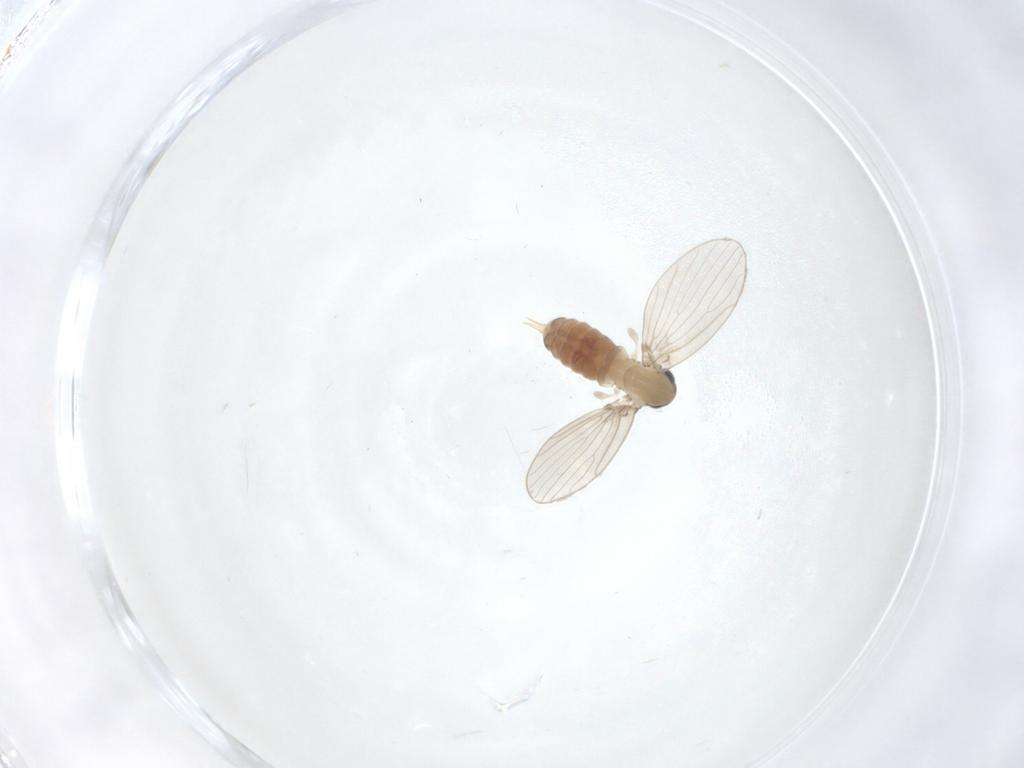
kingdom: Animalia
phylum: Arthropoda
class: Insecta
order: Diptera
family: Psychodidae
